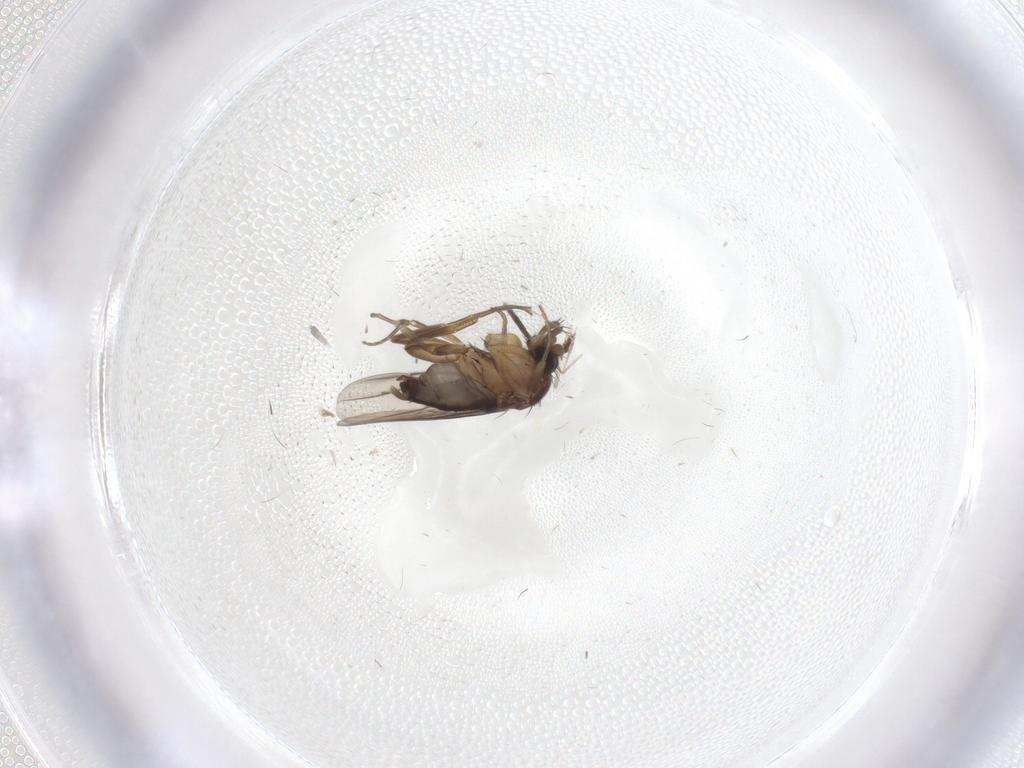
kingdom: Animalia
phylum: Arthropoda
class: Insecta
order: Diptera
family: Phoridae
